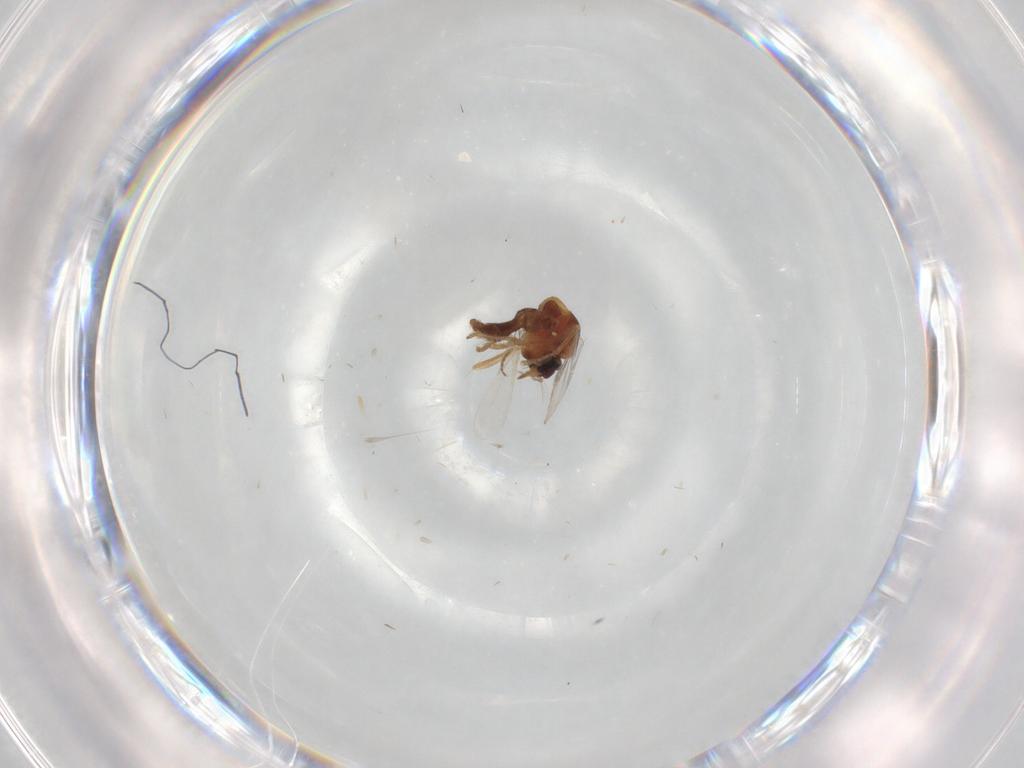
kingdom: Animalia
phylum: Arthropoda
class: Insecta
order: Diptera
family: Ceratopogonidae
